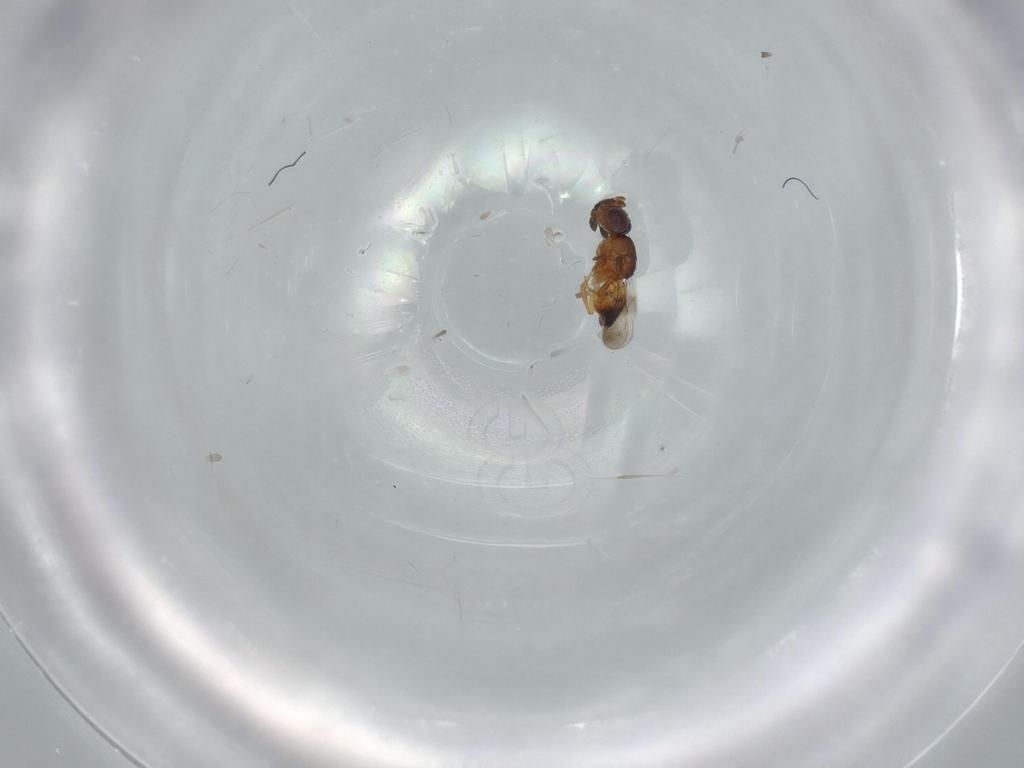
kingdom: Animalia
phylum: Arthropoda
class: Insecta
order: Hymenoptera
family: Ceraphronidae
